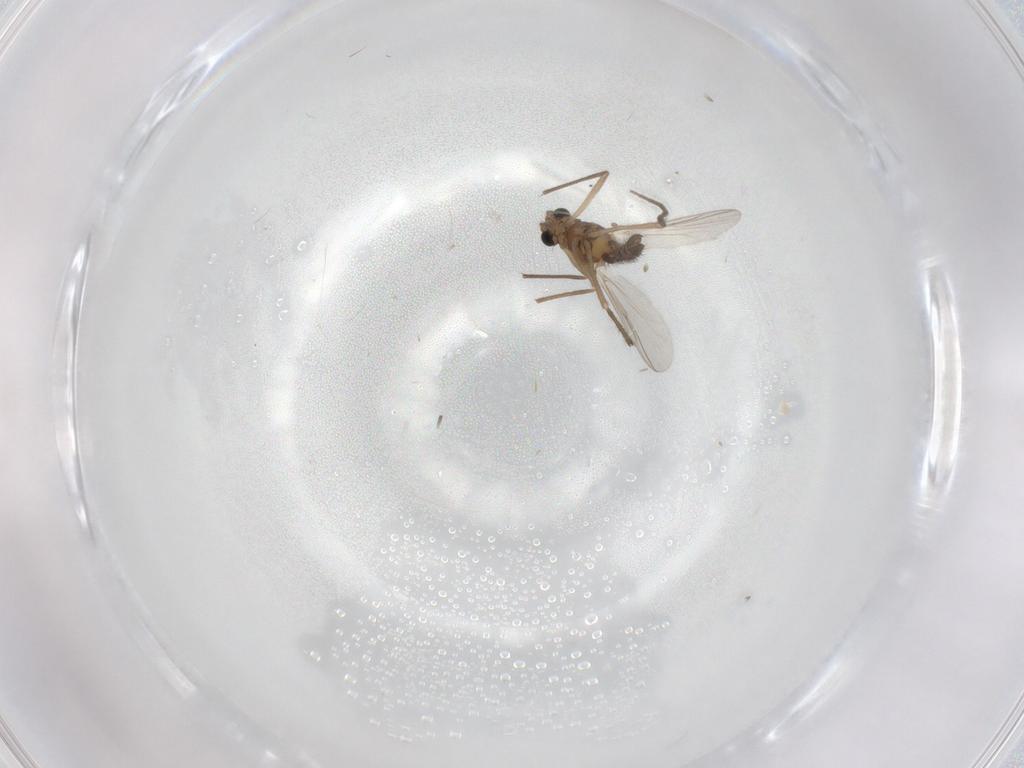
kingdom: Animalia
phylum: Arthropoda
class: Insecta
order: Diptera
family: Chironomidae
